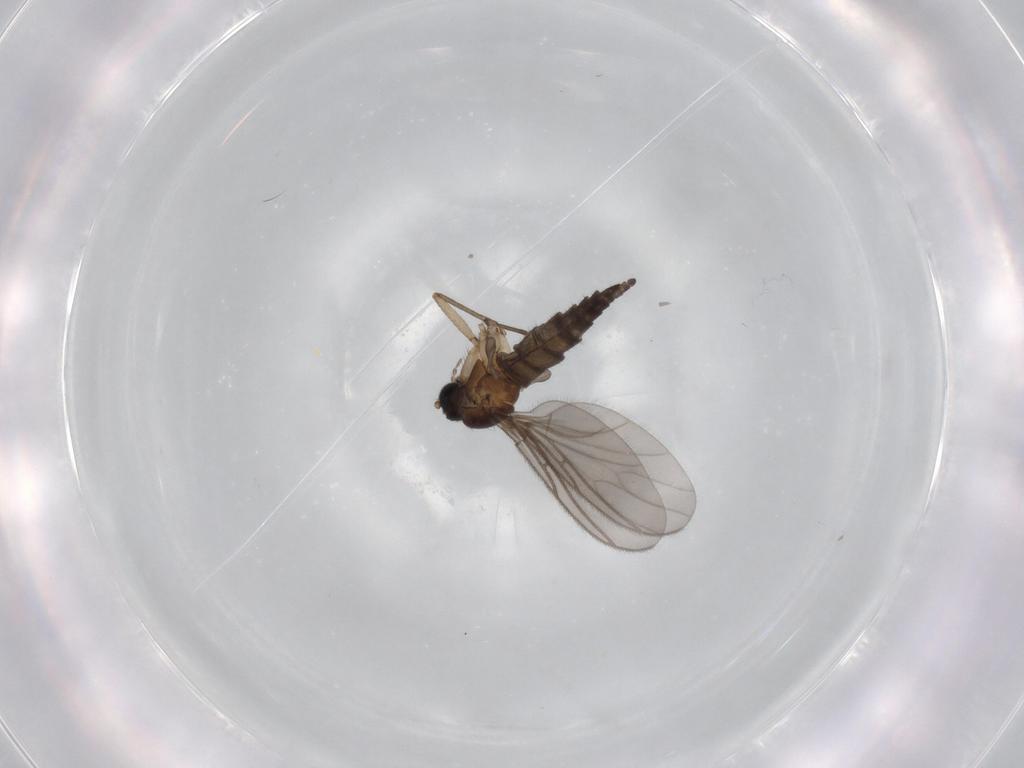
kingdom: Animalia
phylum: Arthropoda
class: Insecta
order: Diptera
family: Sciaridae
